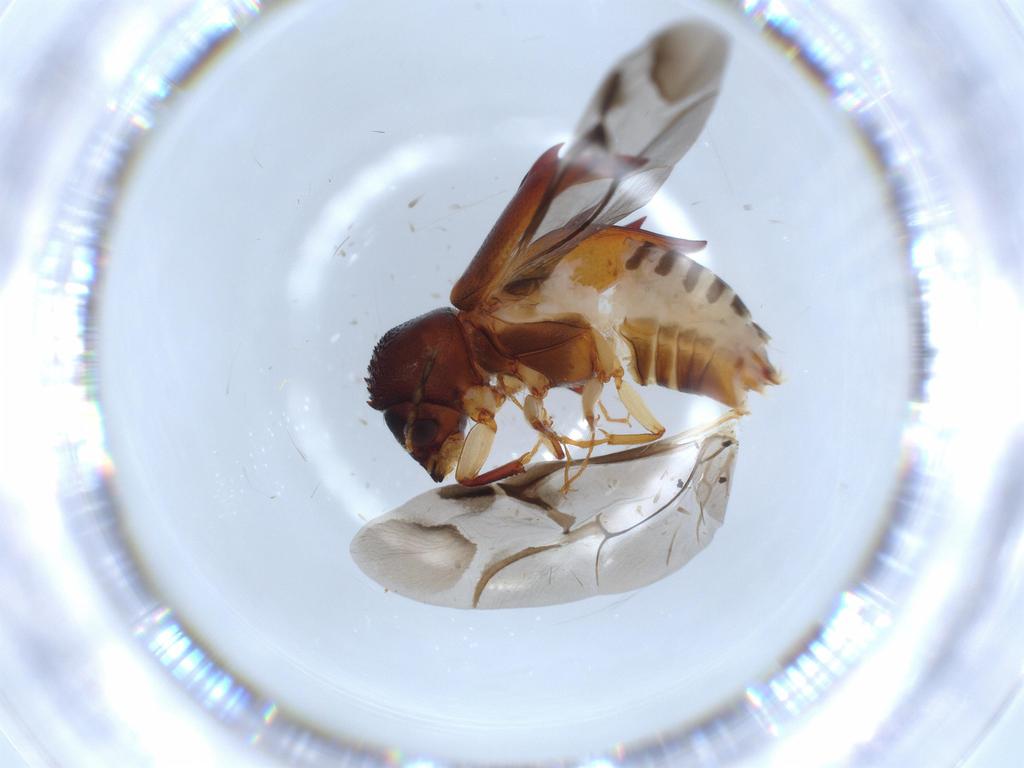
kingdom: Animalia
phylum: Arthropoda
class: Insecta
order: Coleoptera
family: Bostrichidae
